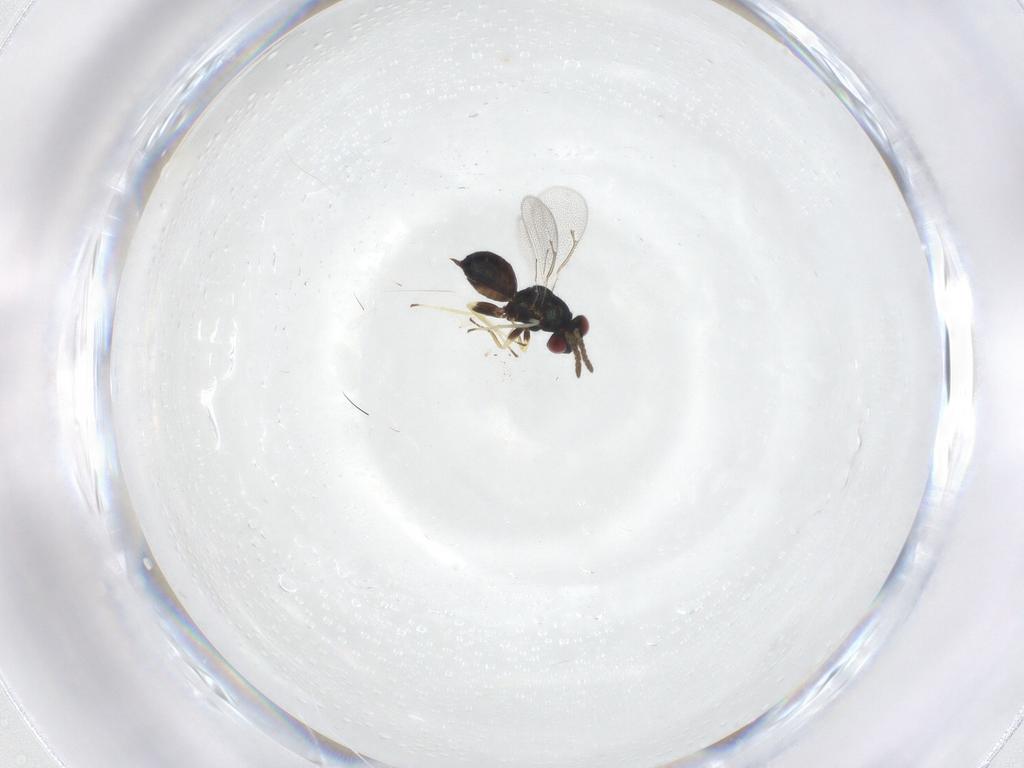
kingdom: Animalia
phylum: Arthropoda
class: Insecta
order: Hymenoptera
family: Eulophidae
